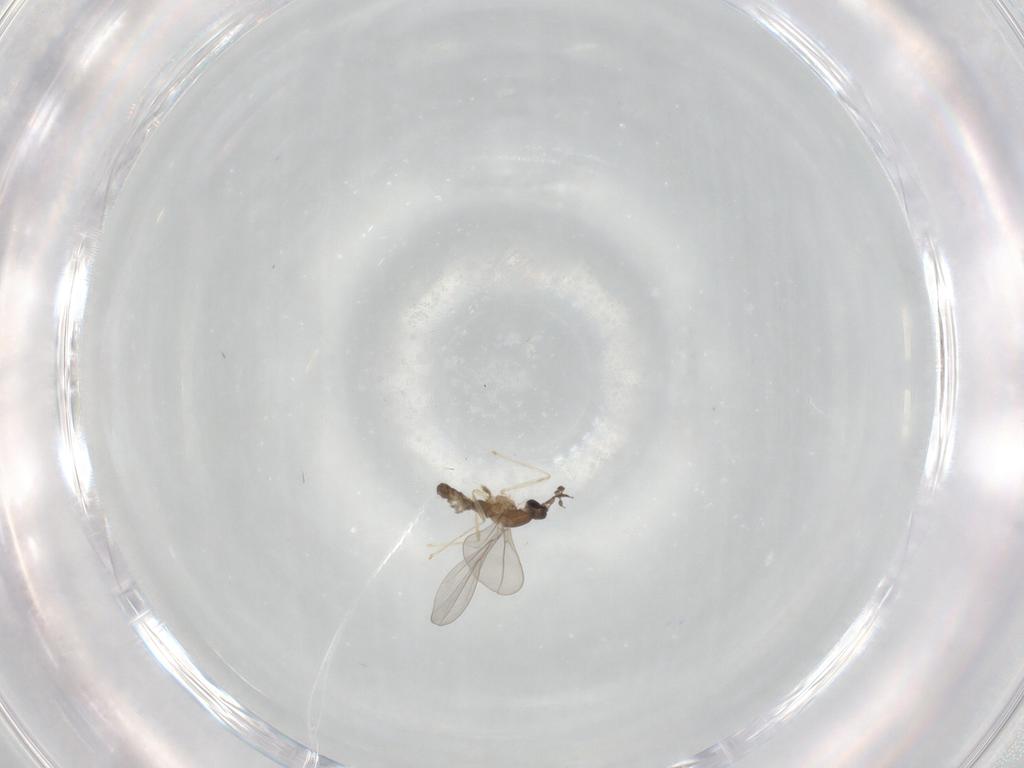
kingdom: Animalia
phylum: Arthropoda
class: Insecta
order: Diptera
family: Cecidomyiidae
